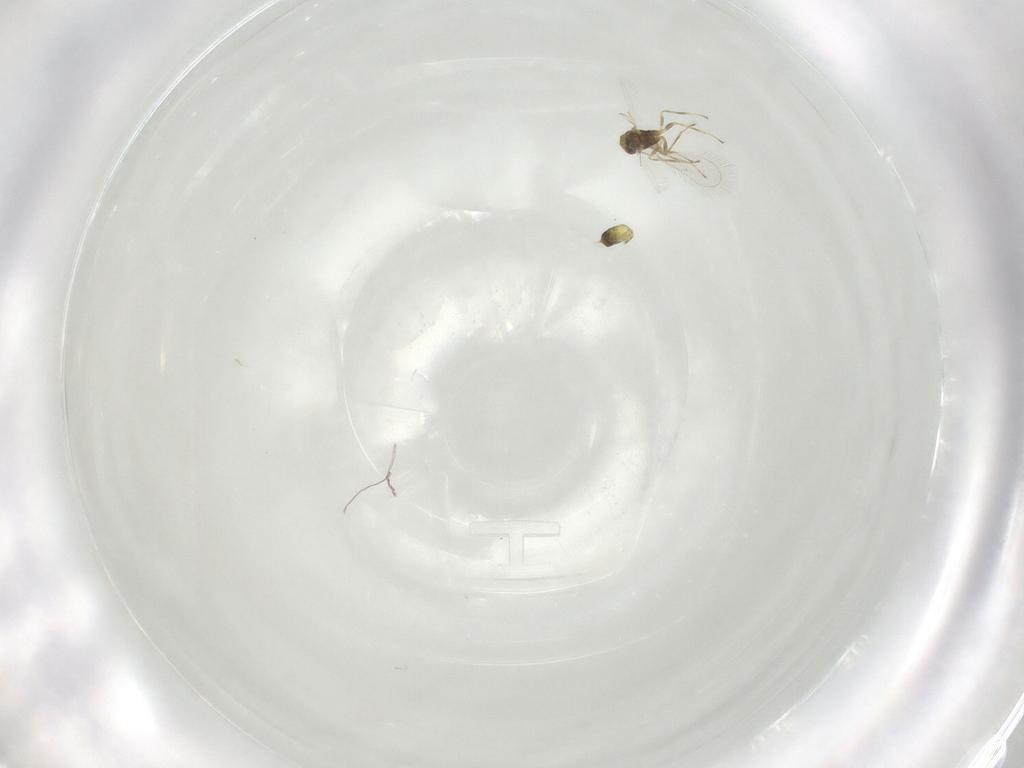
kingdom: Animalia
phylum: Arthropoda
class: Insecta
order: Hymenoptera
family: Eulophidae
